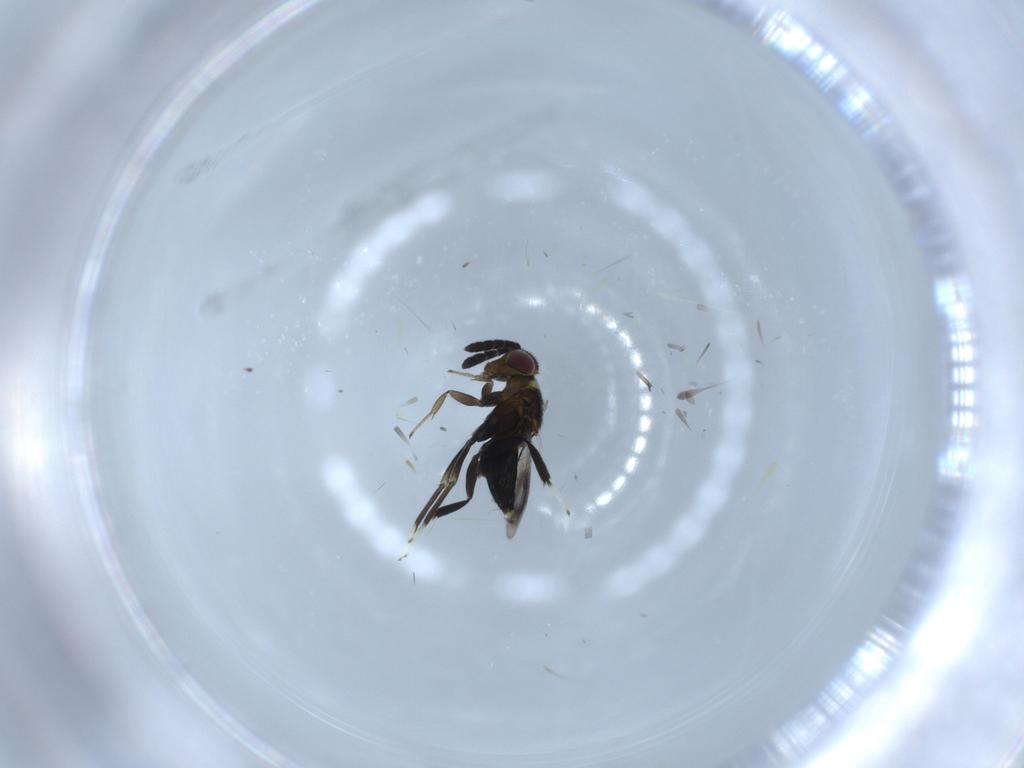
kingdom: Animalia
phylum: Arthropoda
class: Insecta
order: Hymenoptera
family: Aphelinidae
